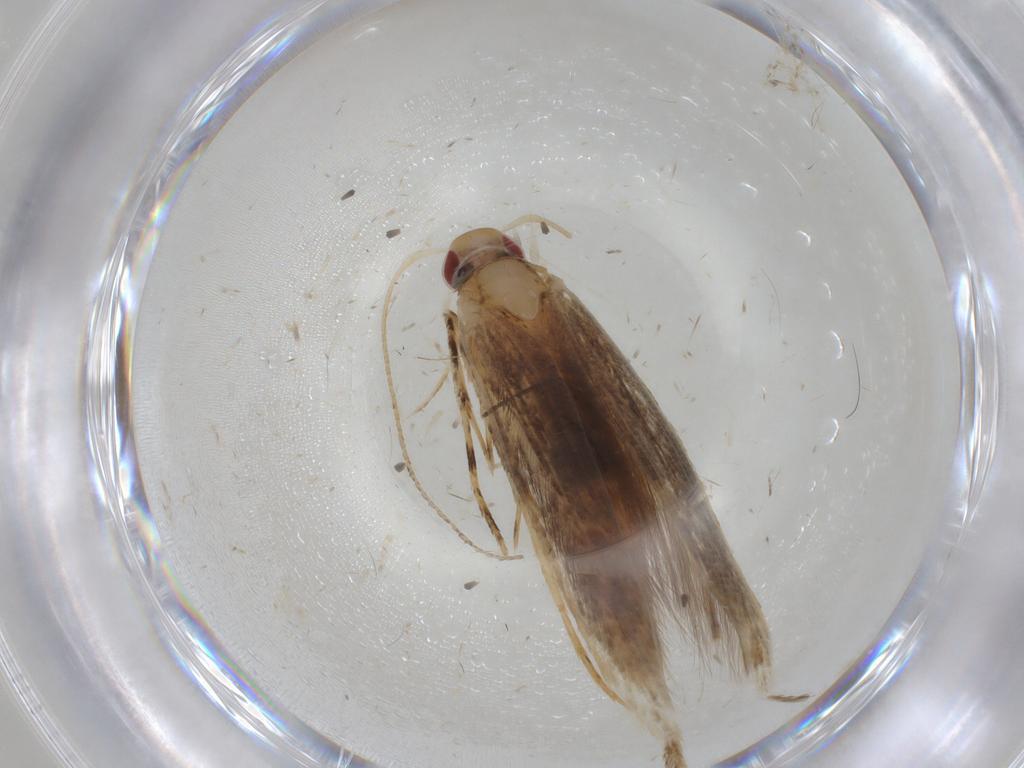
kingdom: Animalia
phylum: Arthropoda
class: Insecta
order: Lepidoptera
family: Cosmopterigidae
